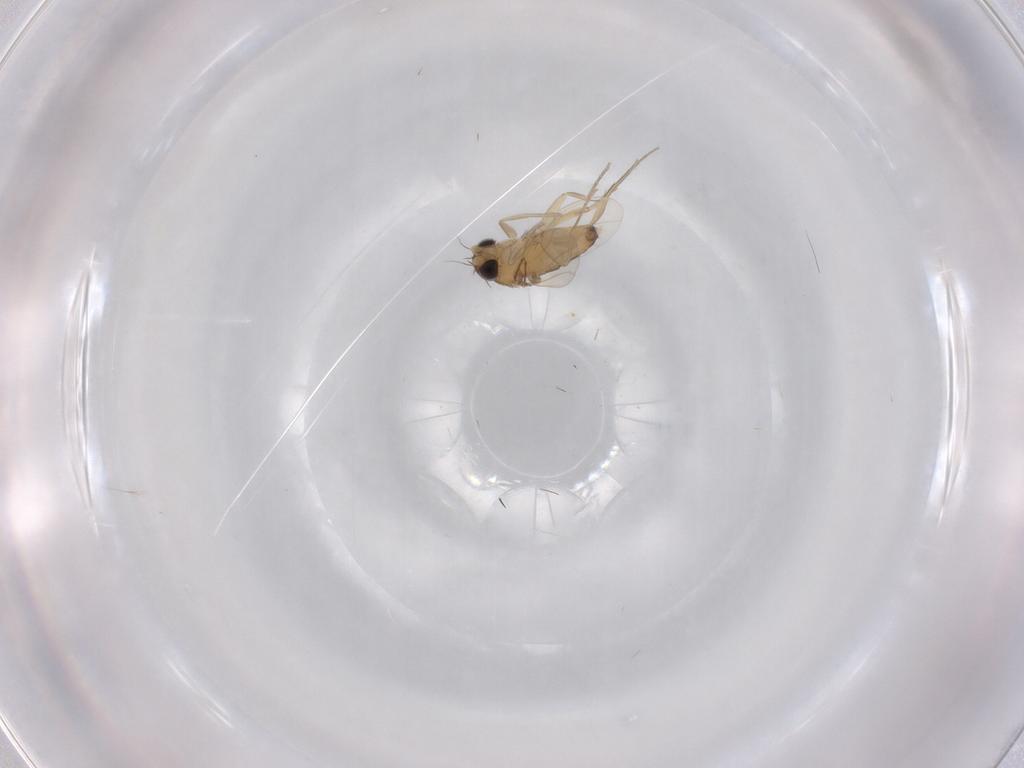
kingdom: Animalia
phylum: Arthropoda
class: Insecta
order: Diptera
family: Phoridae
